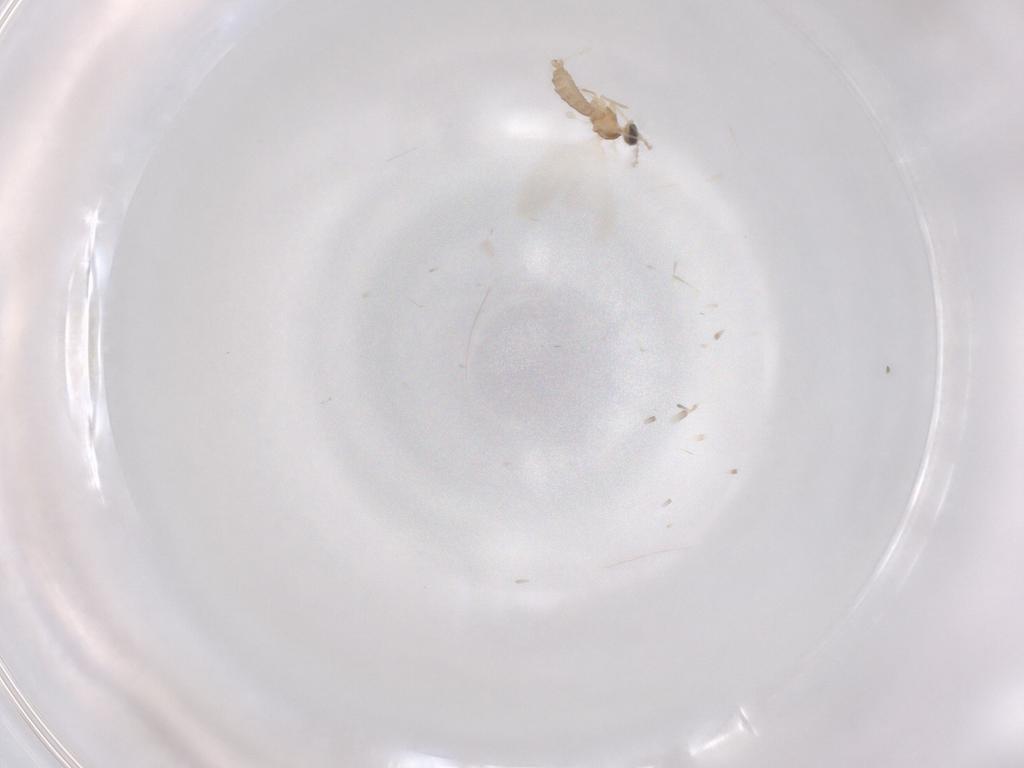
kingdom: Animalia
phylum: Arthropoda
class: Insecta
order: Diptera
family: Cecidomyiidae
